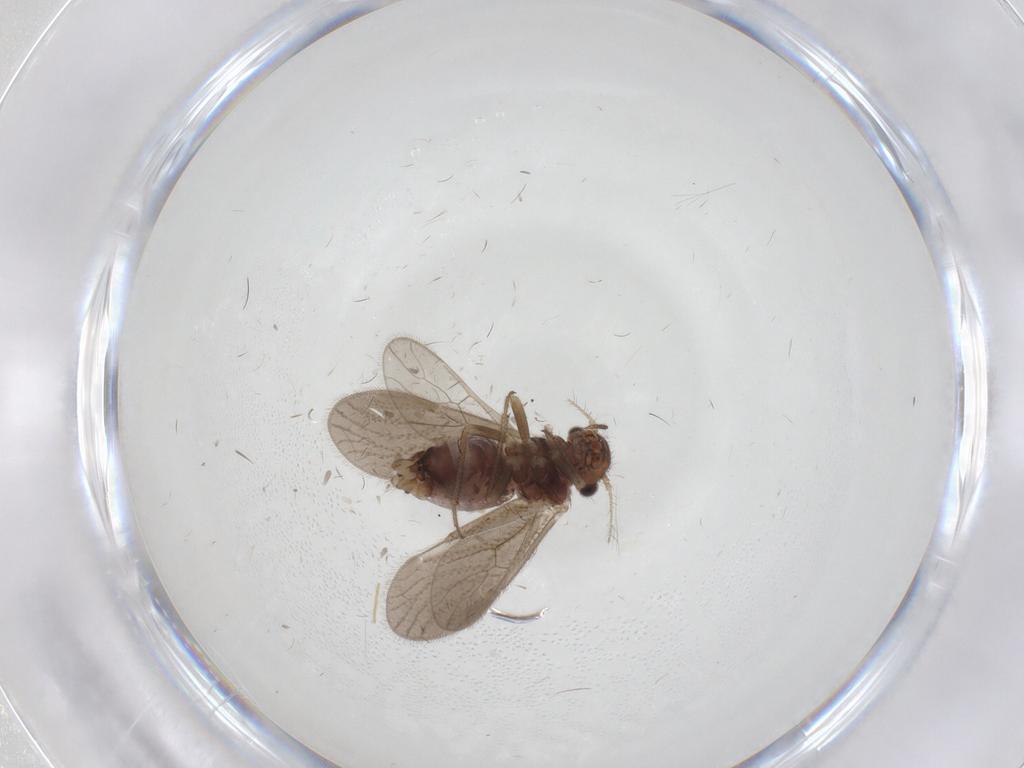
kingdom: Animalia
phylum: Arthropoda
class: Insecta
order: Psocodea
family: Pseudocaeciliidae
